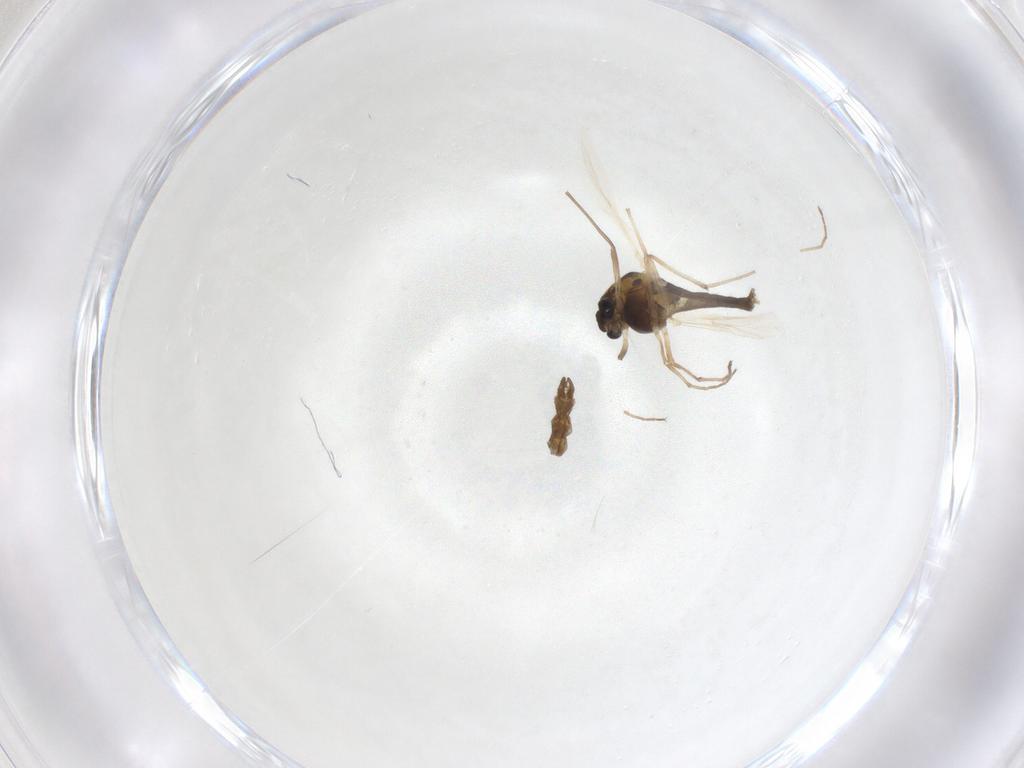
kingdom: Animalia
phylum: Arthropoda
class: Insecta
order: Diptera
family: Chironomidae
